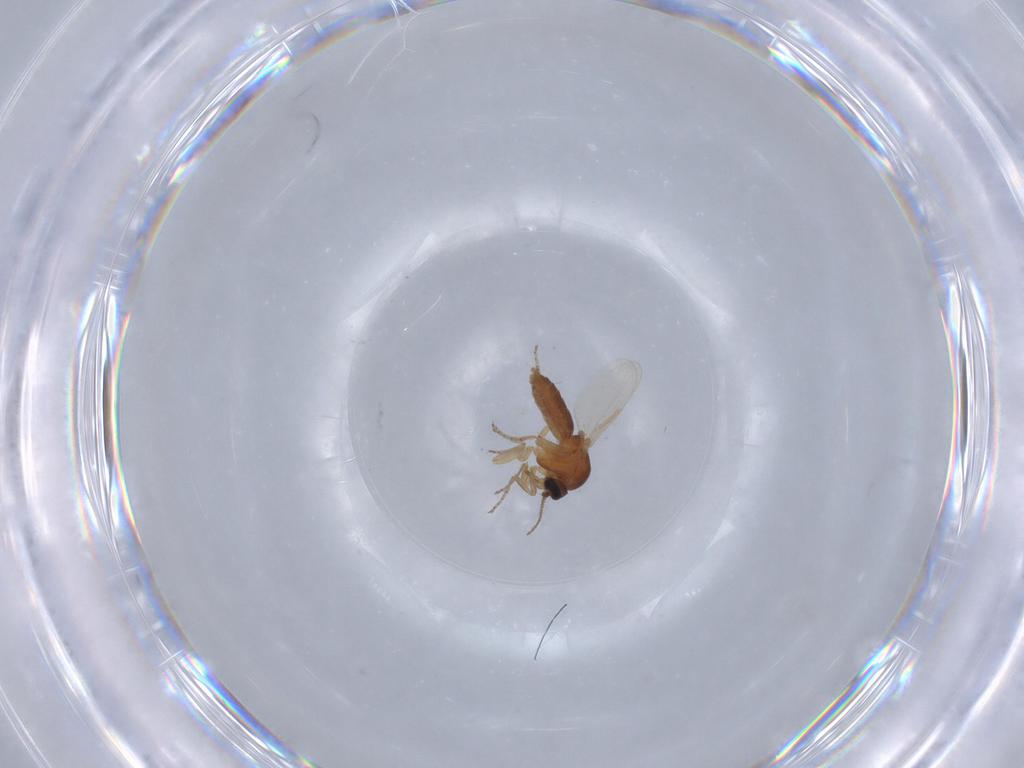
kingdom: Animalia
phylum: Arthropoda
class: Insecta
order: Diptera
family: Ceratopogonidae
